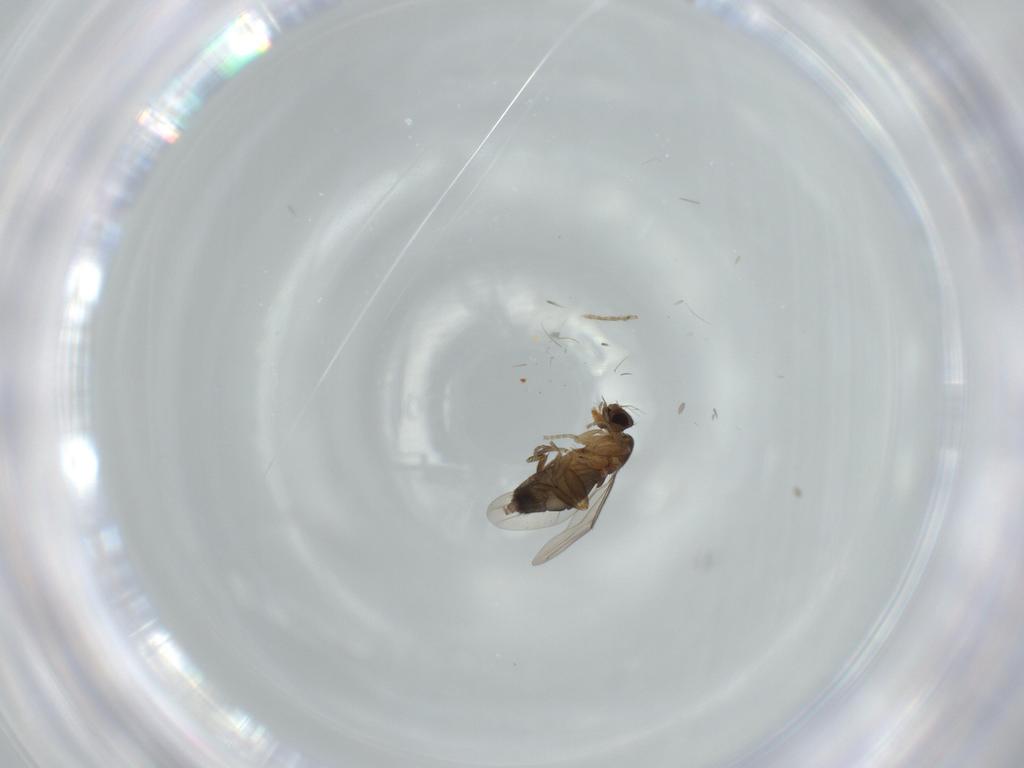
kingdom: Animalia
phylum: Arthropoda
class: Insecta
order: Diptera
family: Phoridae
